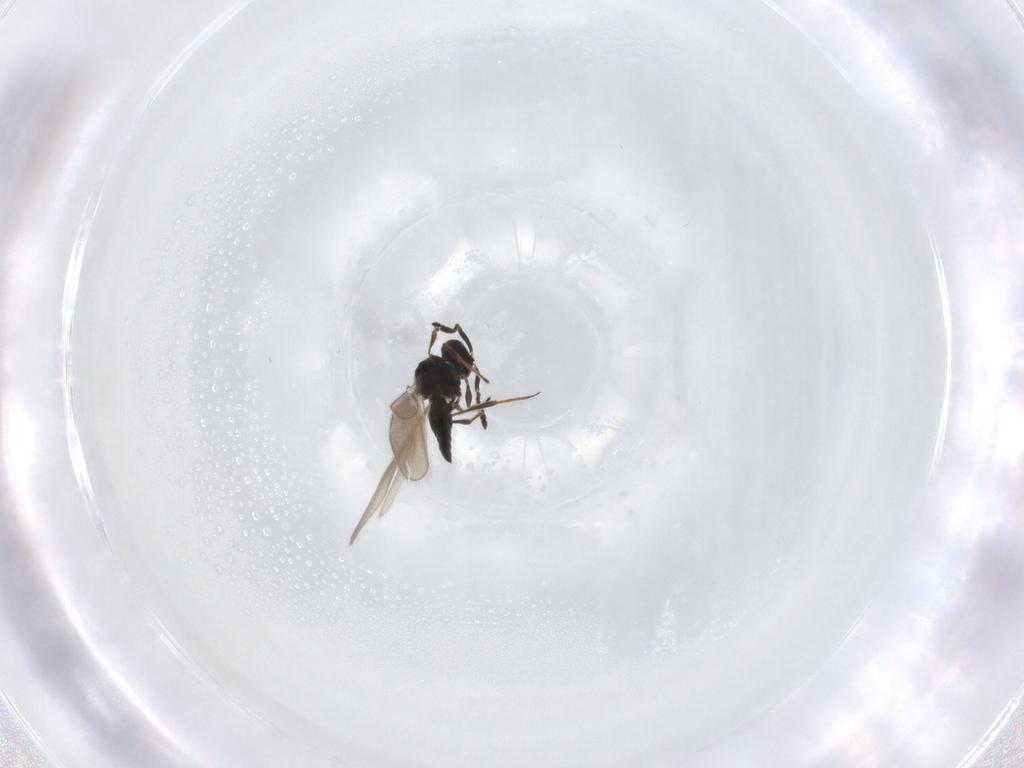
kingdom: Animalia
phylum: Arthropoda
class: Insecta
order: Hymenoptera
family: Platygastridae
